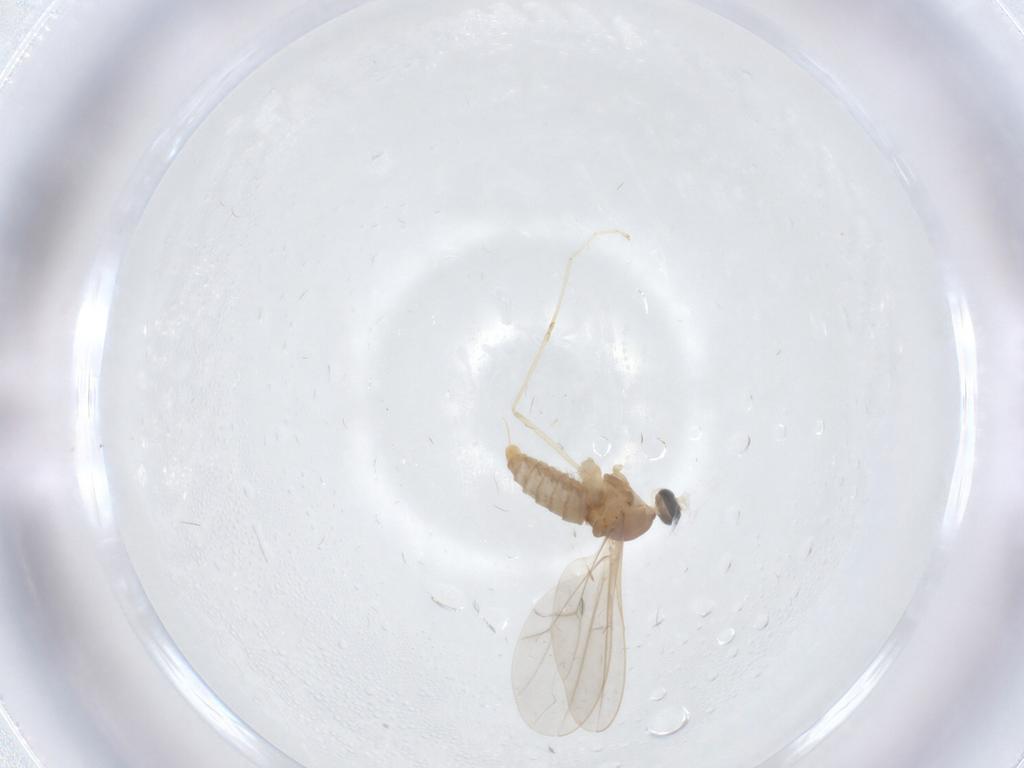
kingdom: Animalia
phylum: Arthropoda
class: Insecta
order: Diptera
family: Cecidomyiidae
